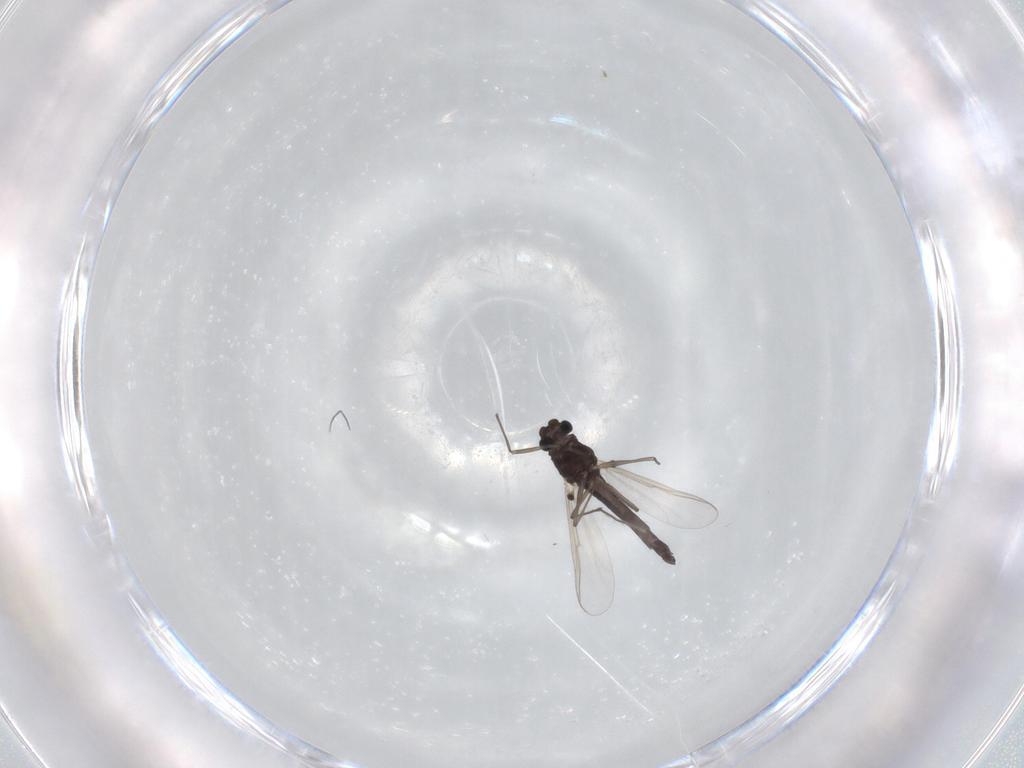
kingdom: Animalia
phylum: Arthropoda
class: Insecta
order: Diptera
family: Chironomidae
